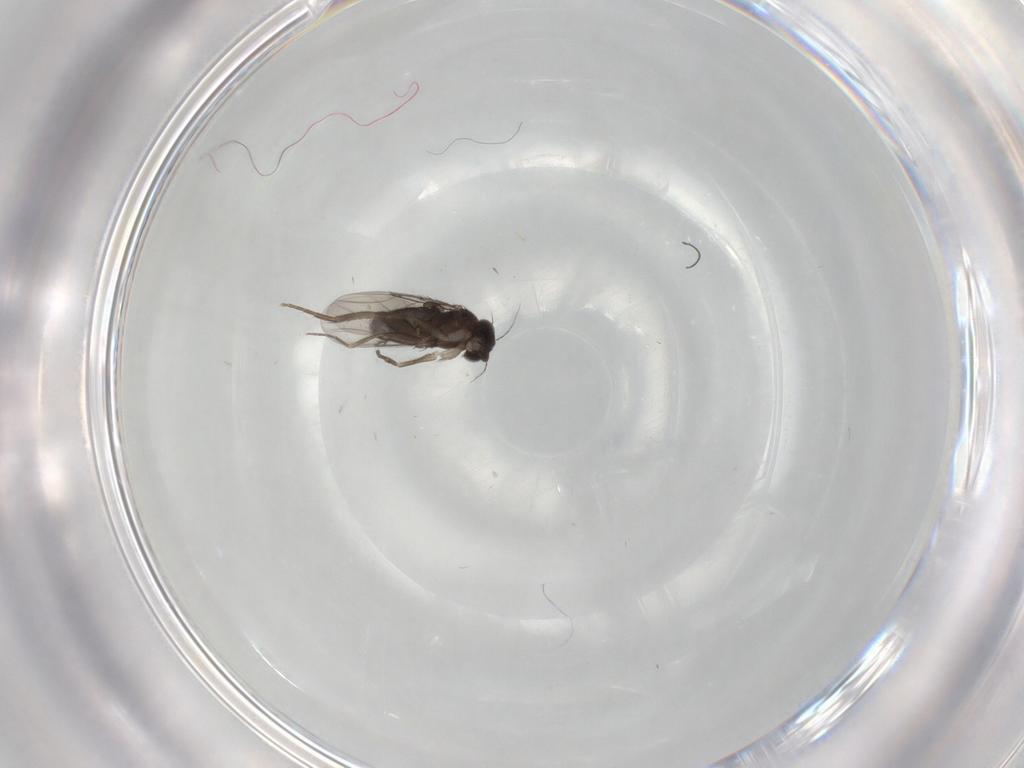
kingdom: Animalia
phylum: Arthropoda
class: Insecta
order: Diptera
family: Phoridae
